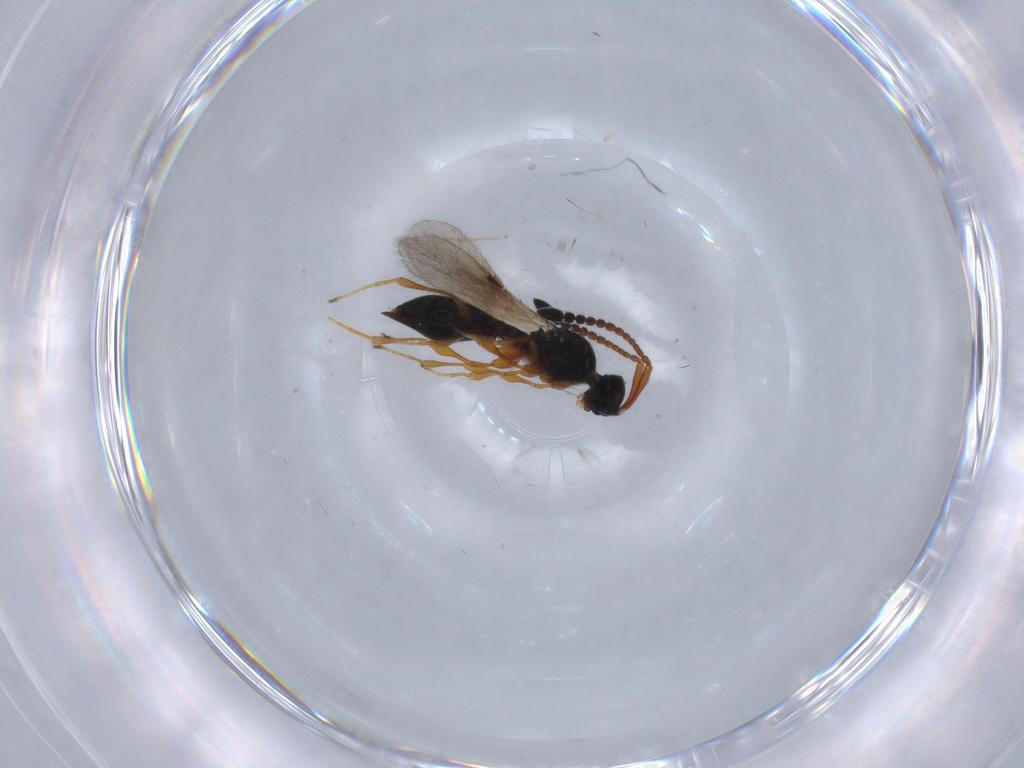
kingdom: Animalia
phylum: Arthropoda
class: Insecta
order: Hymenoptera
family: Diapriidae
